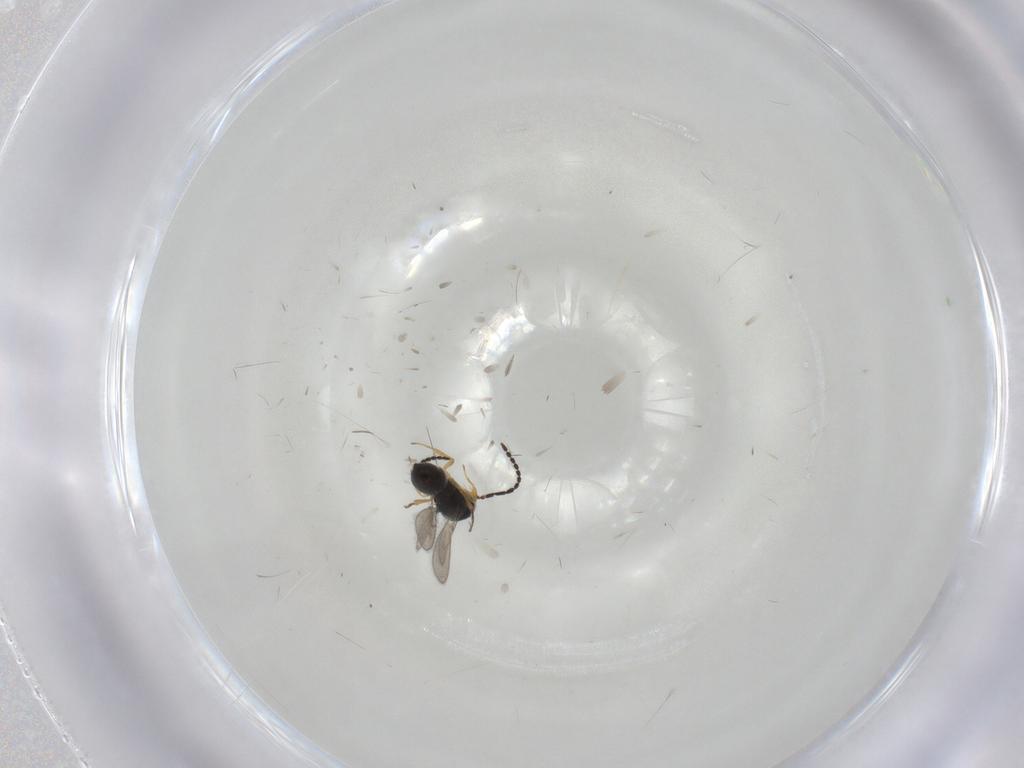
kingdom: Animalia
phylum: Arthropoda
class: Insecta
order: Hymenoptera
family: Scelionidae
